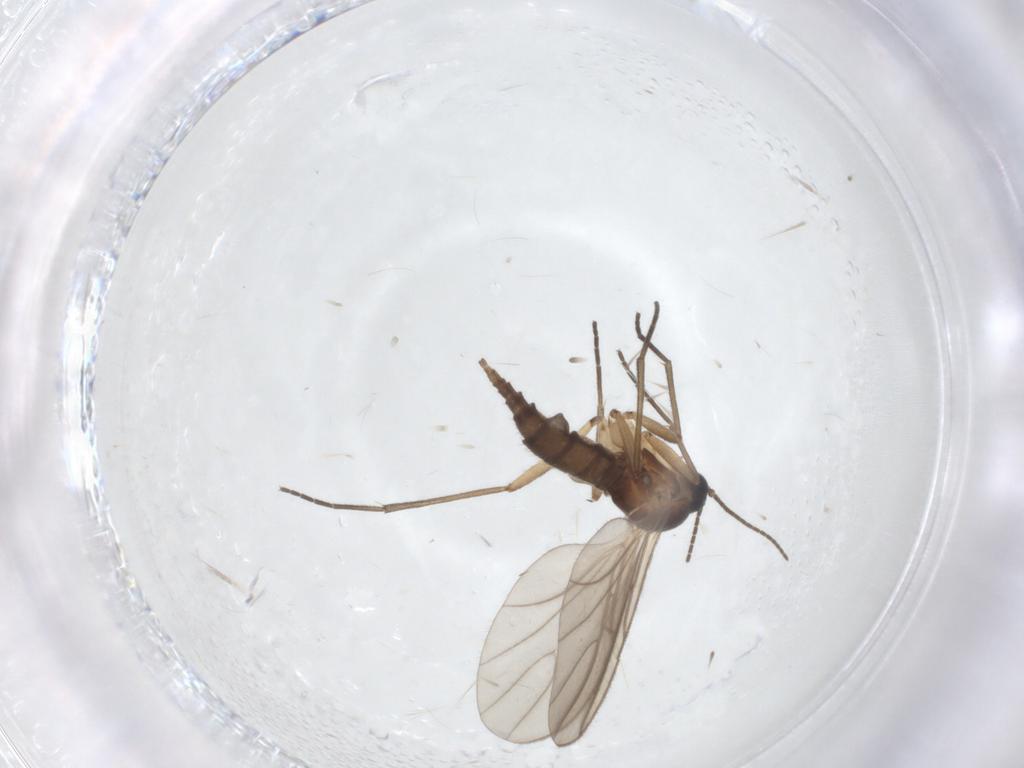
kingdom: Animalia
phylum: Arthropoda
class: Insecta
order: Diptera
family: Sciaridae
